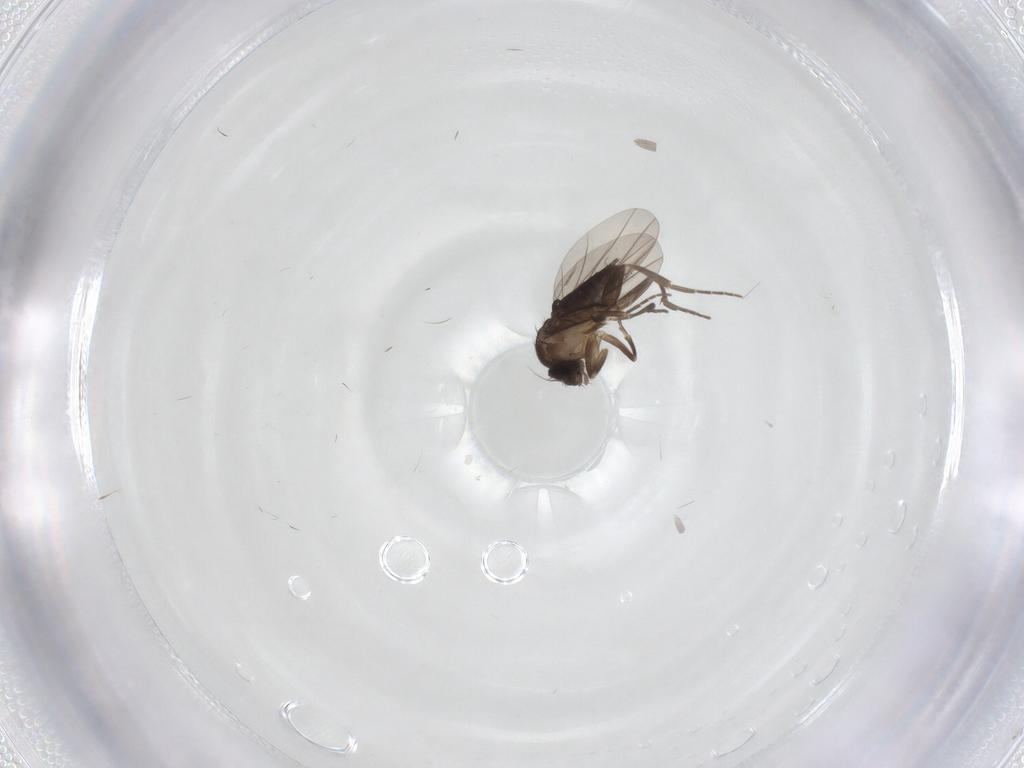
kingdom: Animalia
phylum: Arthropoda
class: Insecta
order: Diptera
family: Phoridae
